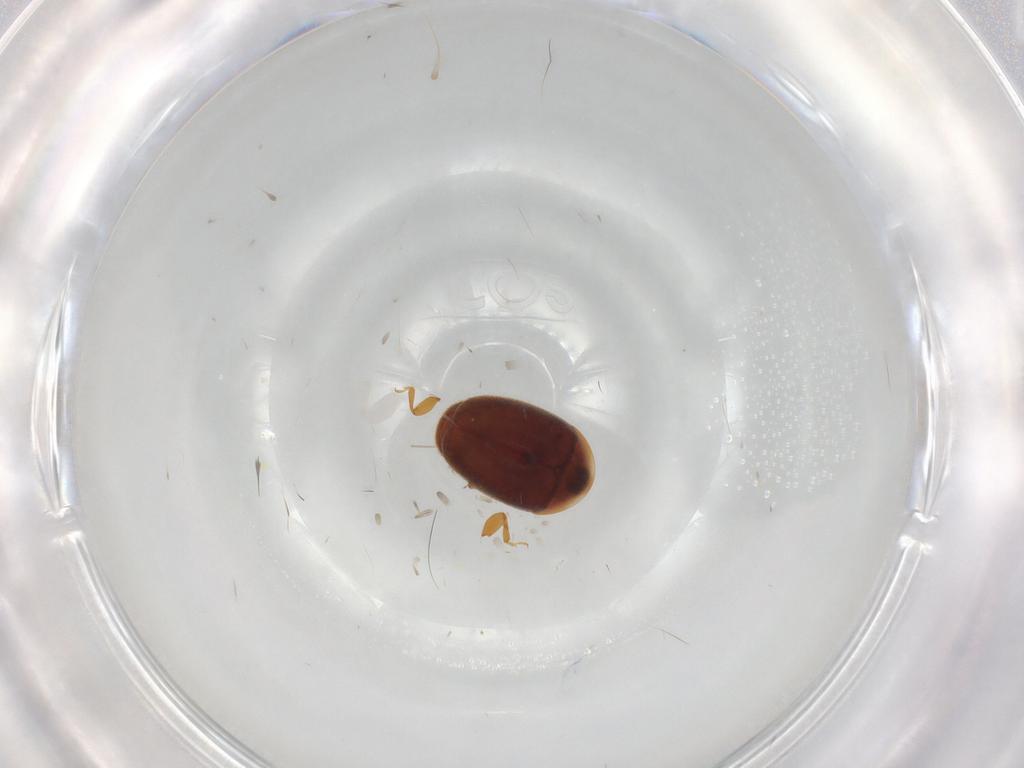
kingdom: Animalia
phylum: Arthropoda
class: Insecta
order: Coleoptera
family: Corylophidae
